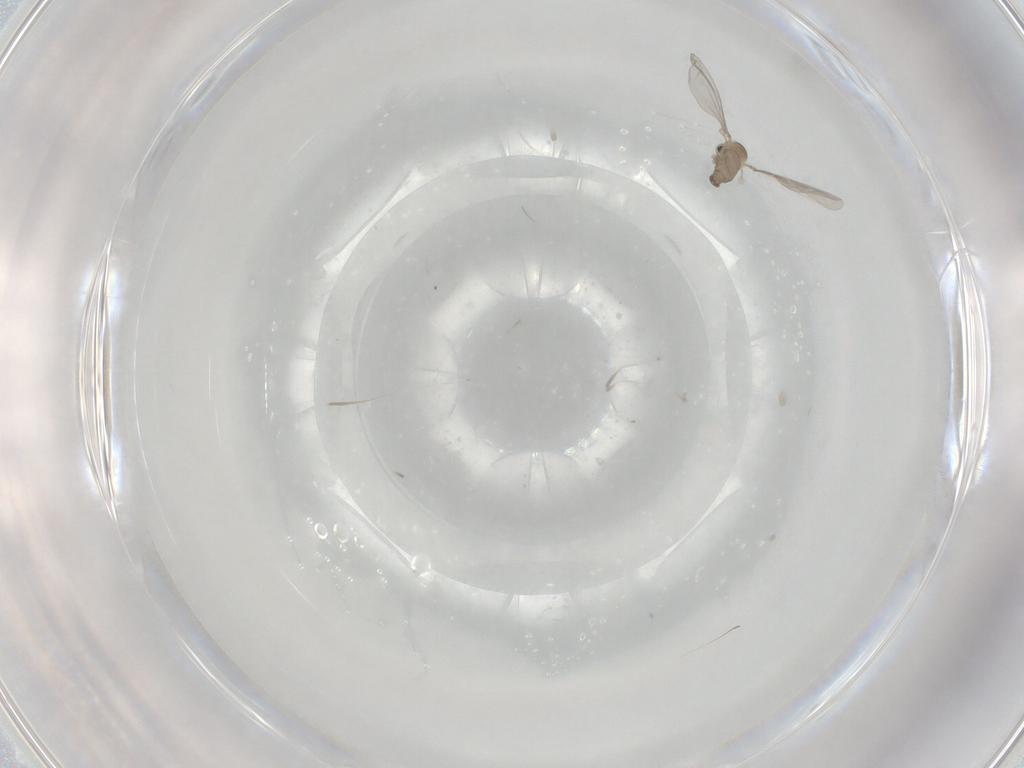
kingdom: Animalia
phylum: Arthropoda
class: Insecta
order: Diptera
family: Cecidomyiidae
